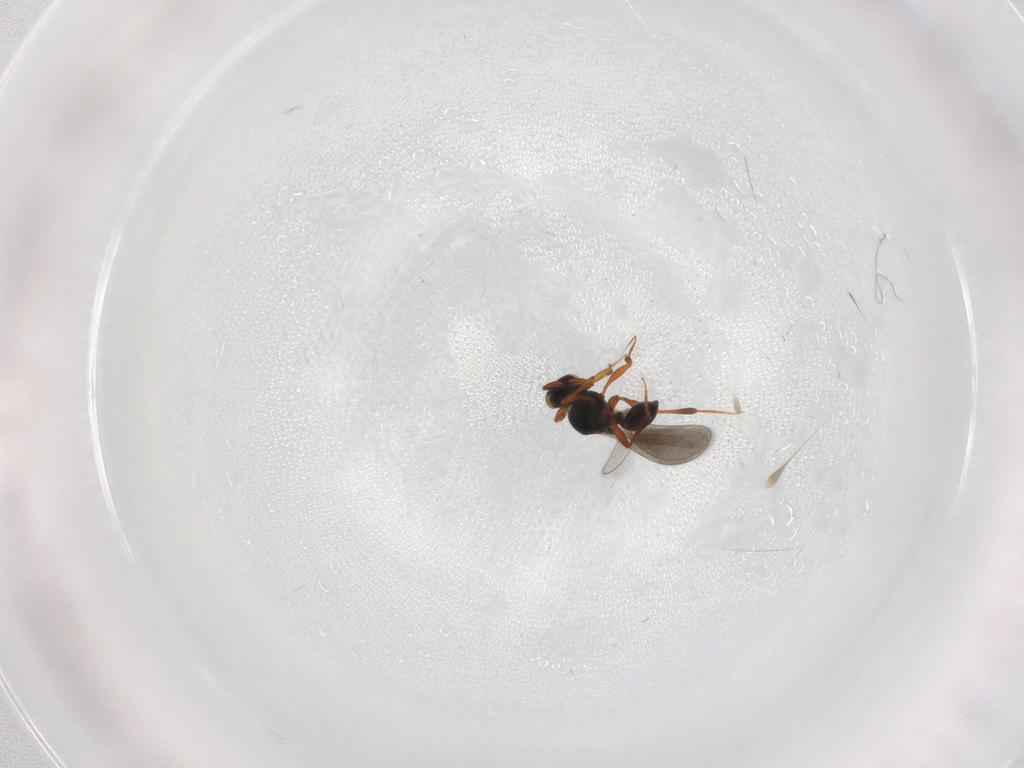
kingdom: Animalia
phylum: Arthropoda
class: Insecta
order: Hymenoptera
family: Platygastridae
